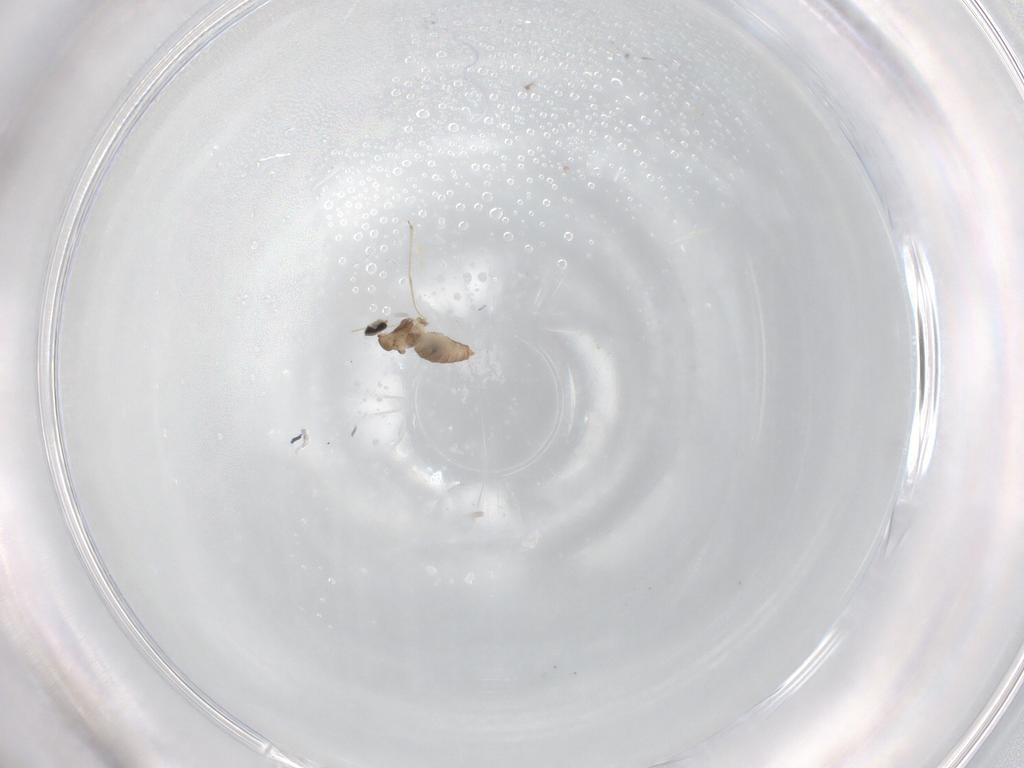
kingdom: Animalia
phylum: Arthropoda
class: Insecta
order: Diptera
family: Cecidomyiidae
